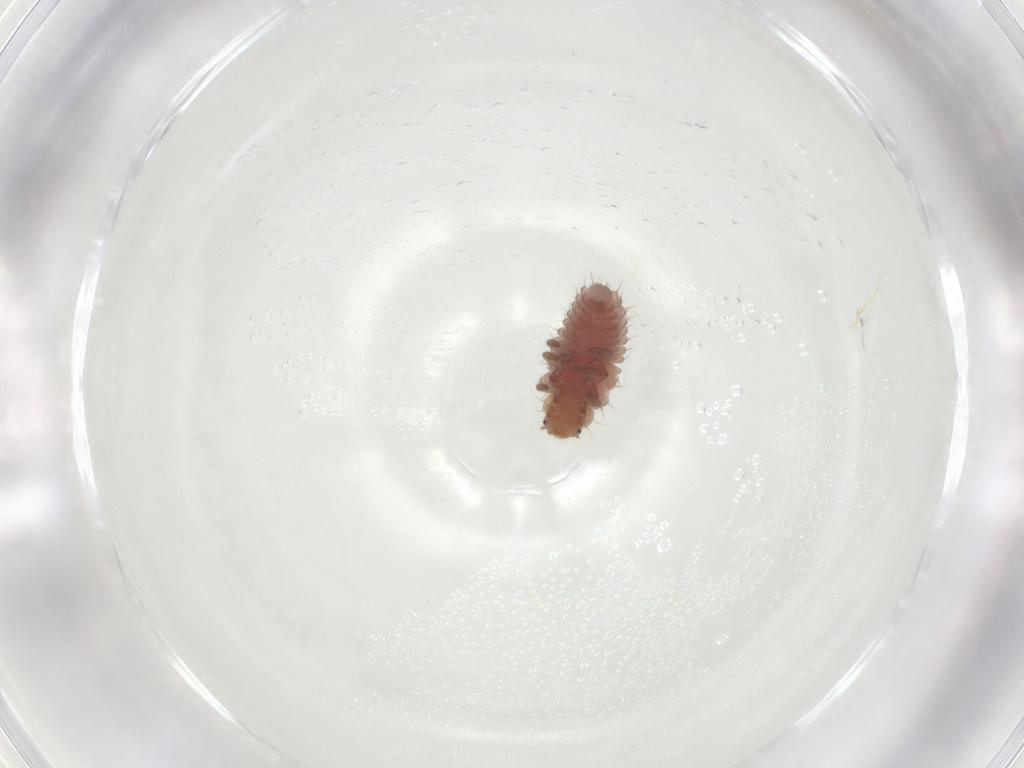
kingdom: Animalia
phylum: Arthropoda
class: Insecta
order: Coleoptera
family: Coccinellidae
